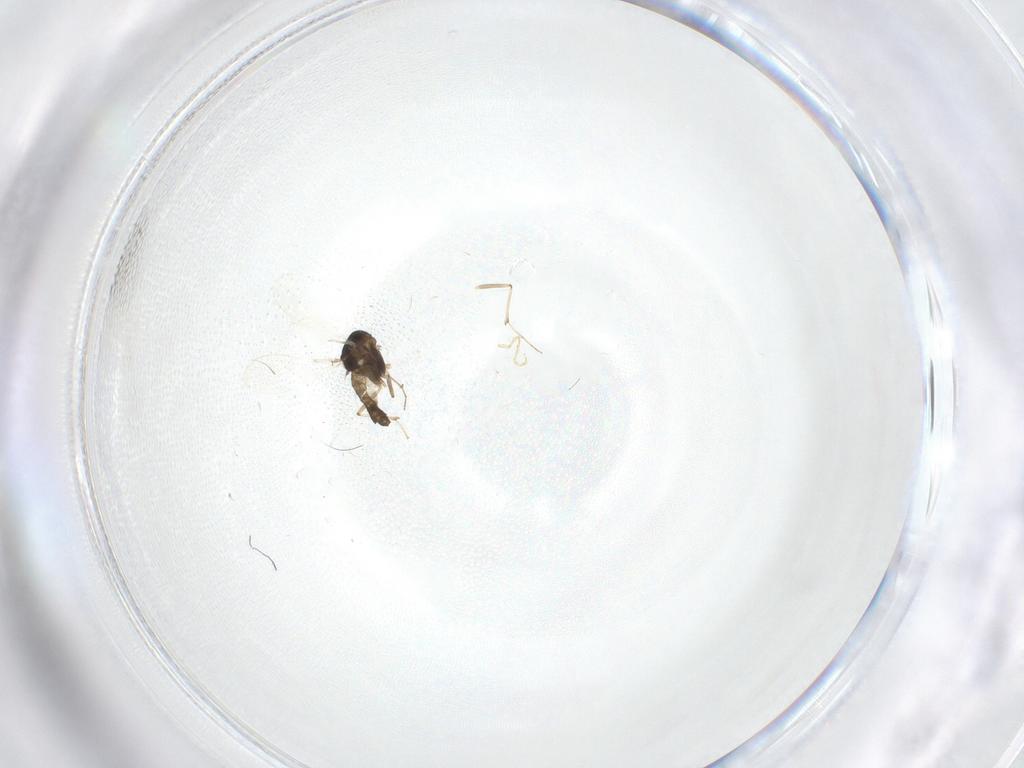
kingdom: Animalia
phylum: Arthropoda
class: Insecta
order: Diptera
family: Chironomidae
